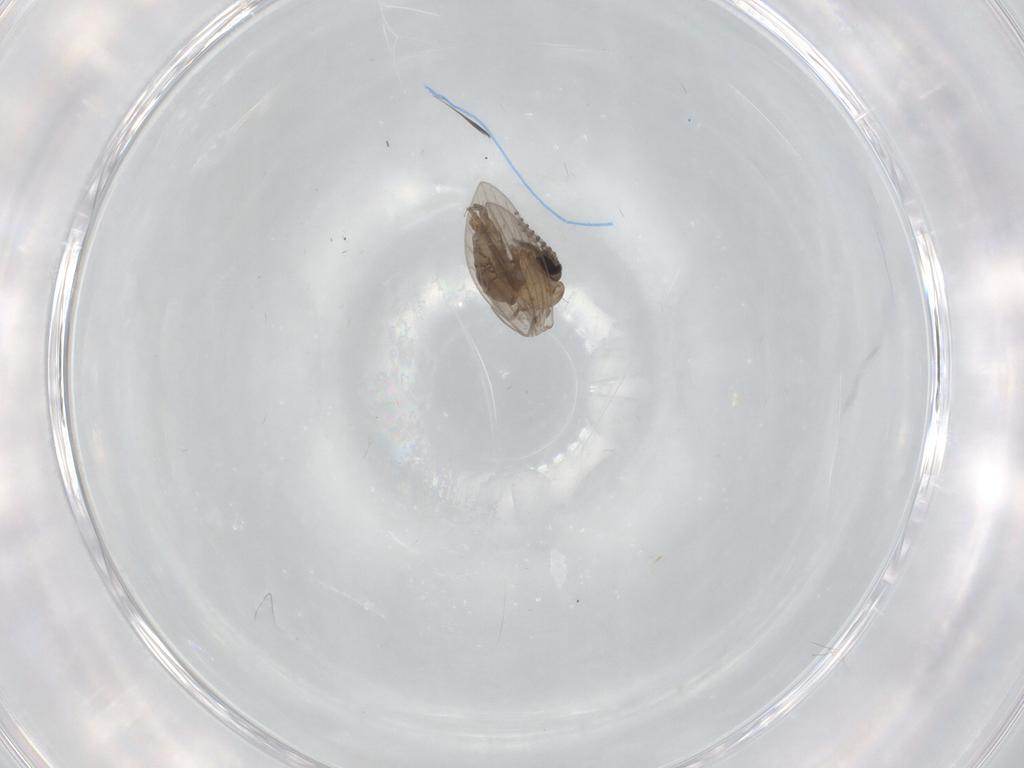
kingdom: Animalia
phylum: Arthropoda
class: Insecta
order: Diptera
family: Psychodidae
